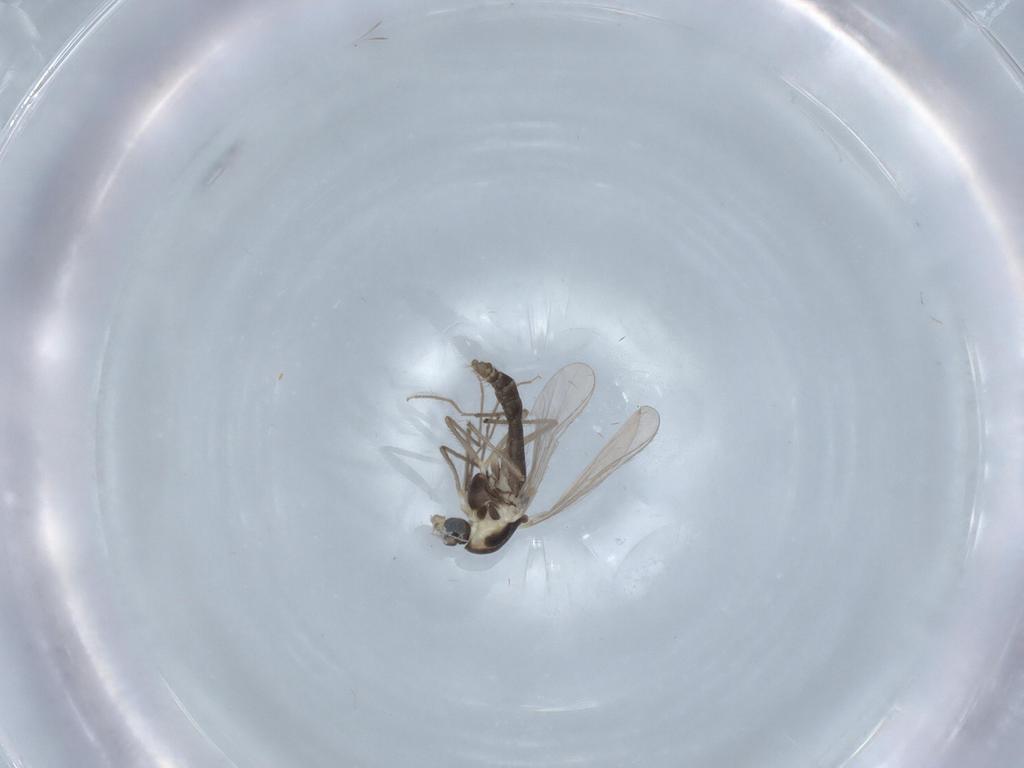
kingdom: Animalia
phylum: Arthropoda
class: Insecta
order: Diptera
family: Chironomidae
